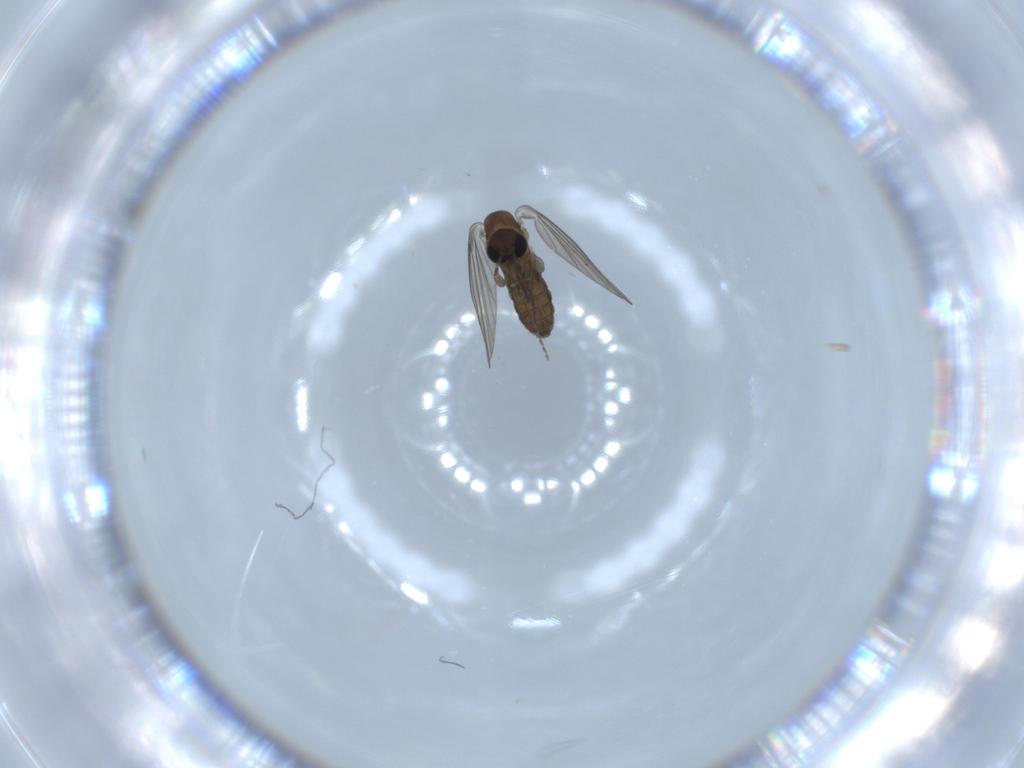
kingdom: Animalia
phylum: Arthropoda
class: Insecta
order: Diptera
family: Psychodidae
